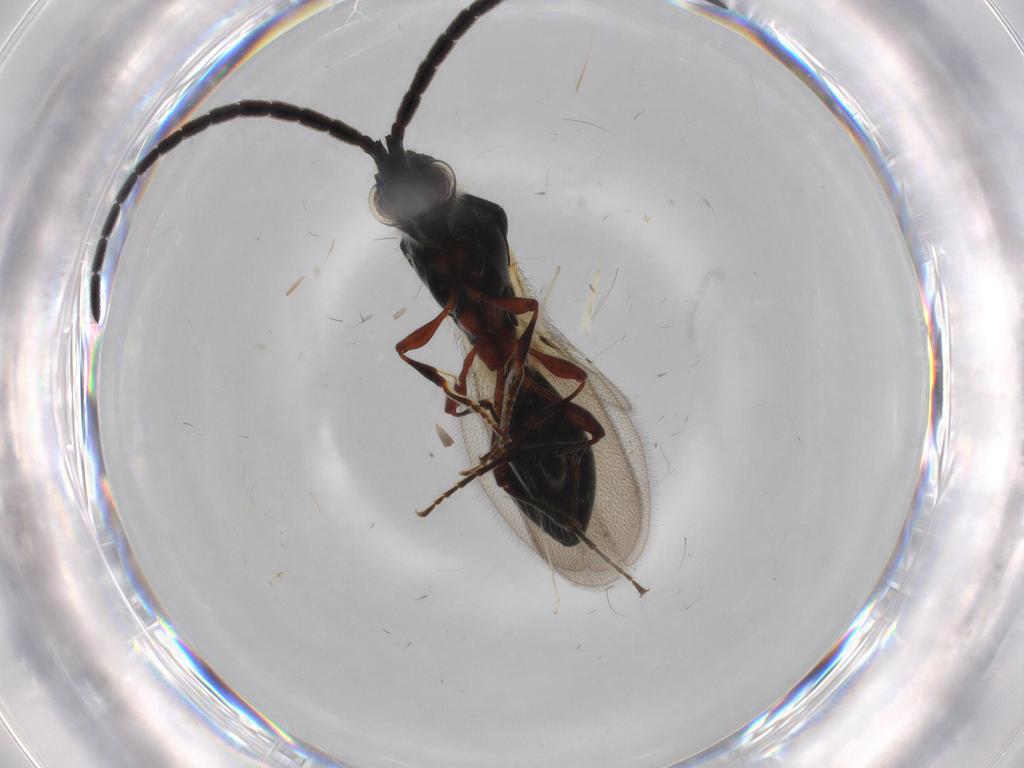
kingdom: Animalia
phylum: Arthropoda
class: Insecta
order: Hymenoptera
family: Diapriidae
